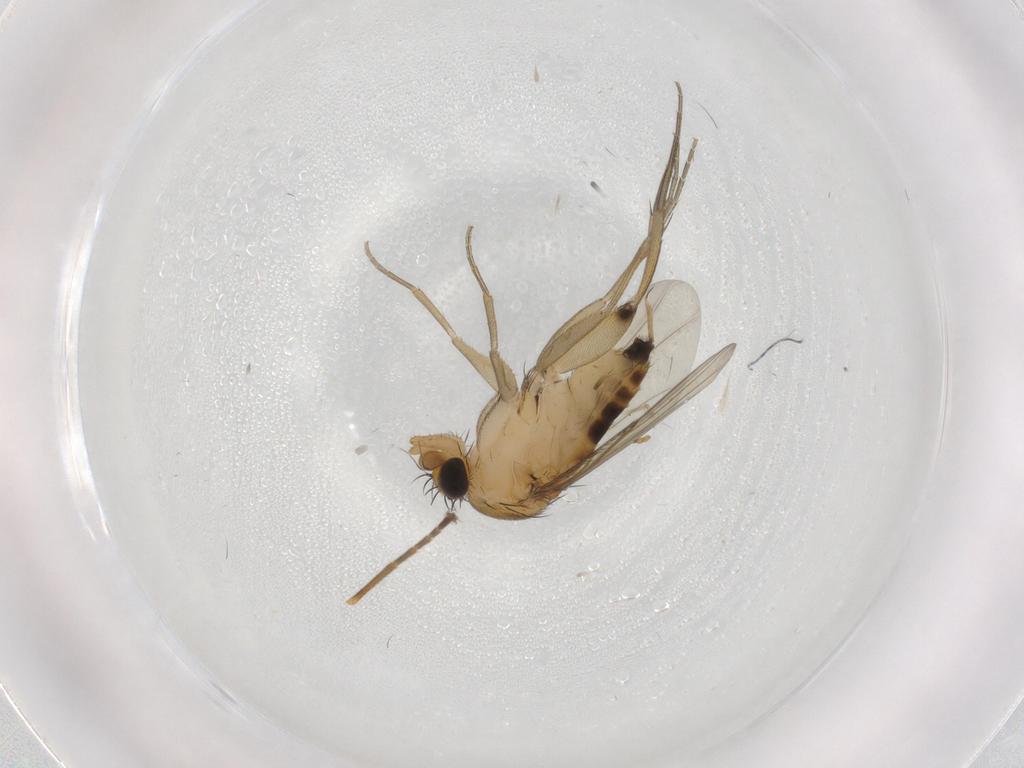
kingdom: Animalia
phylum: Arthropoda
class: Insecta
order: Diptera
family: Phoridae
